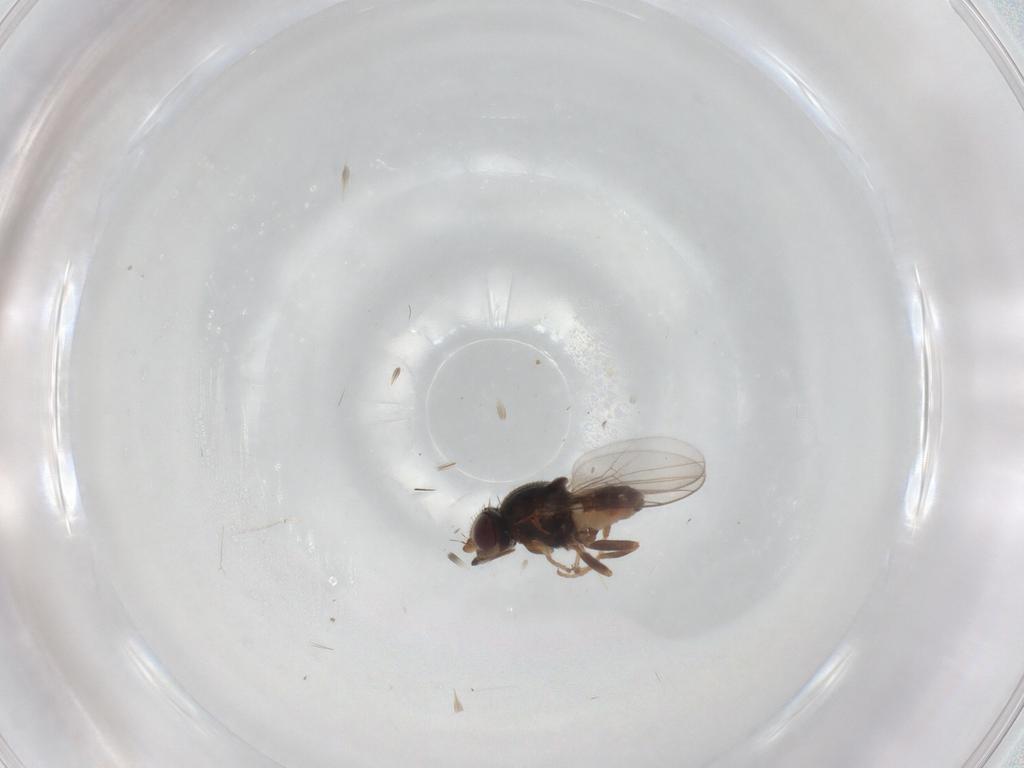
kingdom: Animalia
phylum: Arthropoda
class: Insecta
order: Diptera
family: Chloropidae
